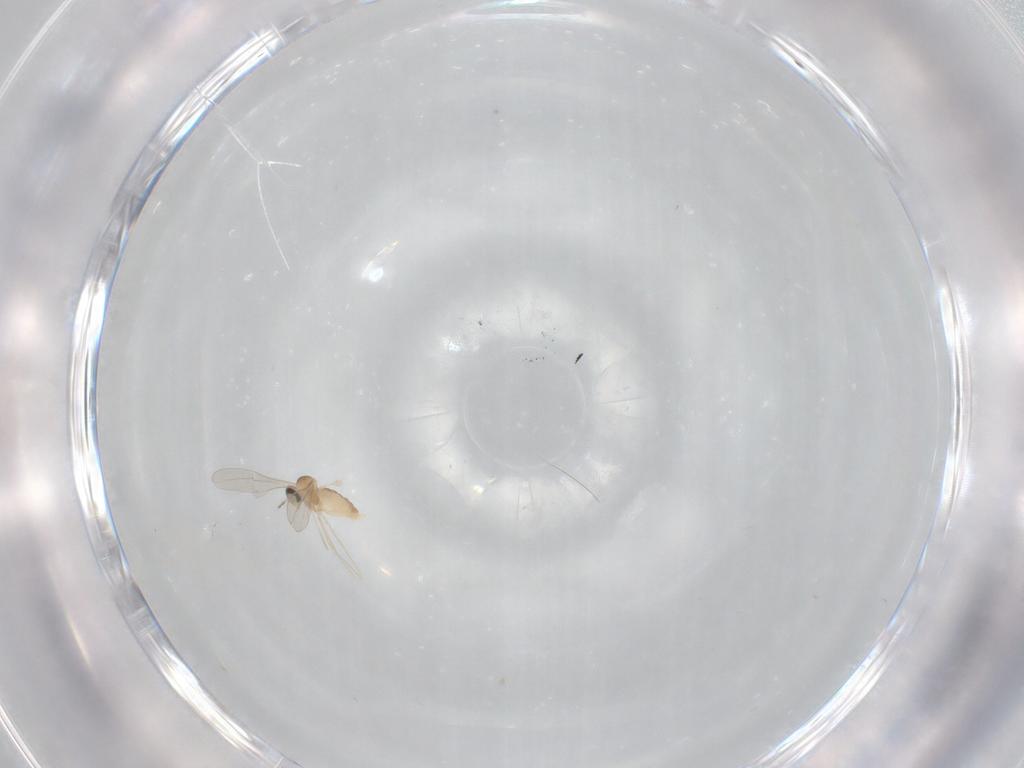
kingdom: Animalia
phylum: Arthropoda
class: Insecta
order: Diptera
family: Ceratopogonidae
